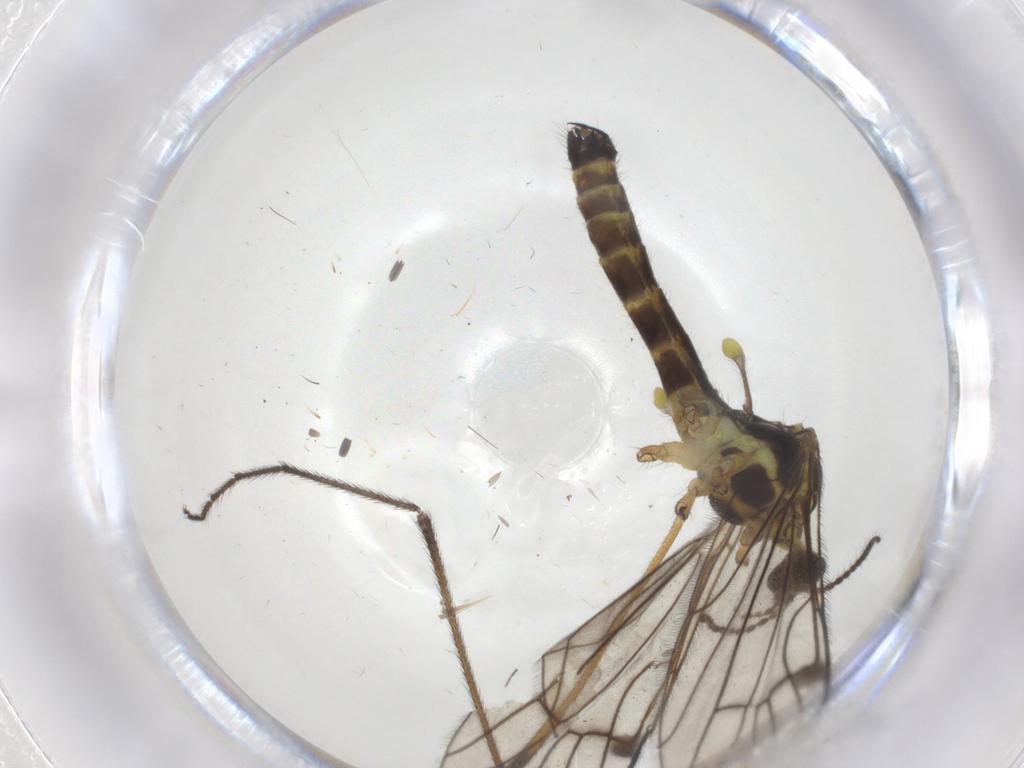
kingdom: Animalia
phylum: Arthropoda
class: Insecta
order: Diptera
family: Limoniidae
